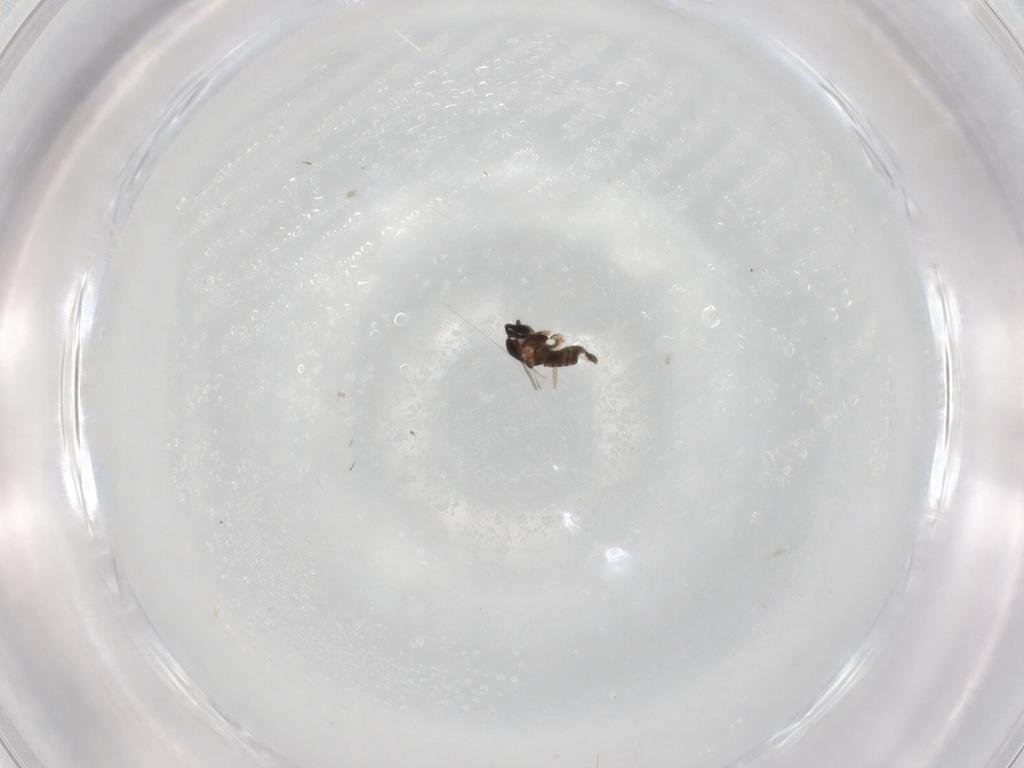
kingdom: Animalia
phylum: Arthropoda
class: Insecta
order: Diptera
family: Cecidomyiidae
